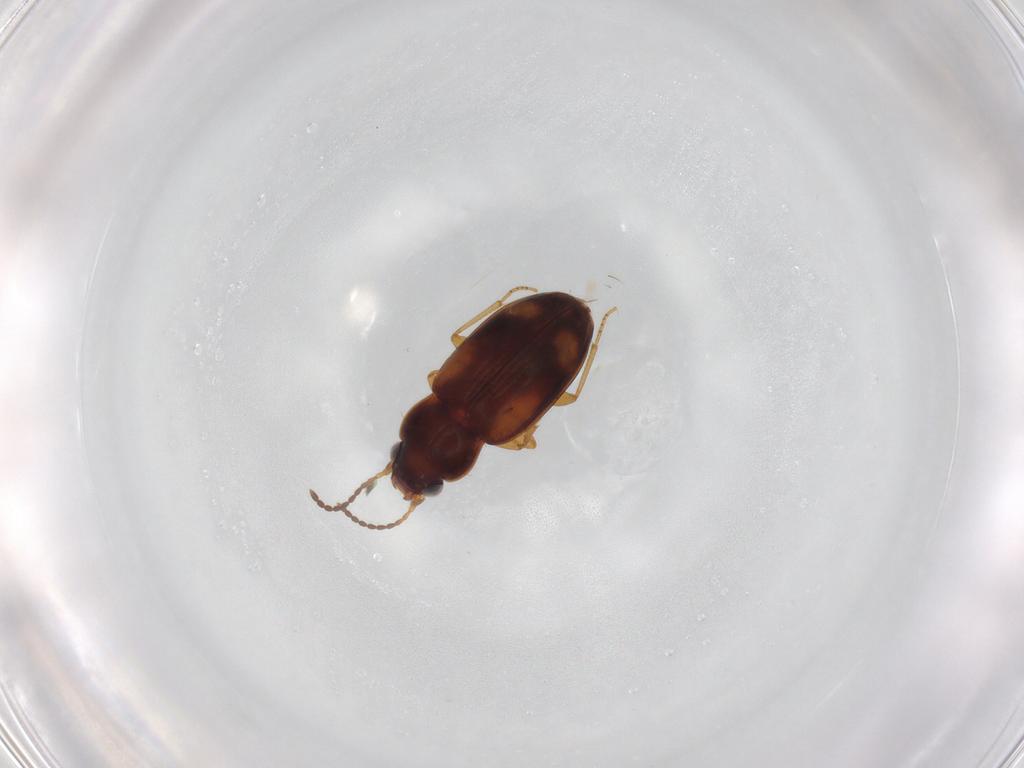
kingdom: Animalia
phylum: Arthropoda
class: Insecta
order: Coleoptera
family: Carabidae
